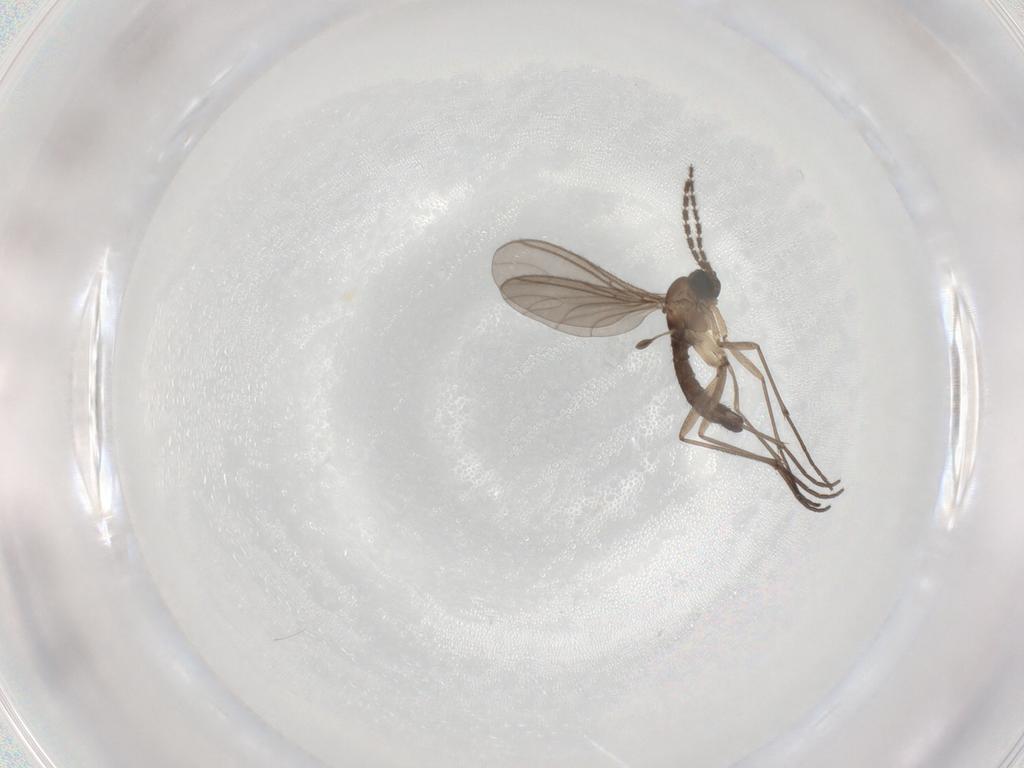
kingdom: Animalia
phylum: Arthropoda
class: Insecta
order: Diptera
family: Sciaridae
